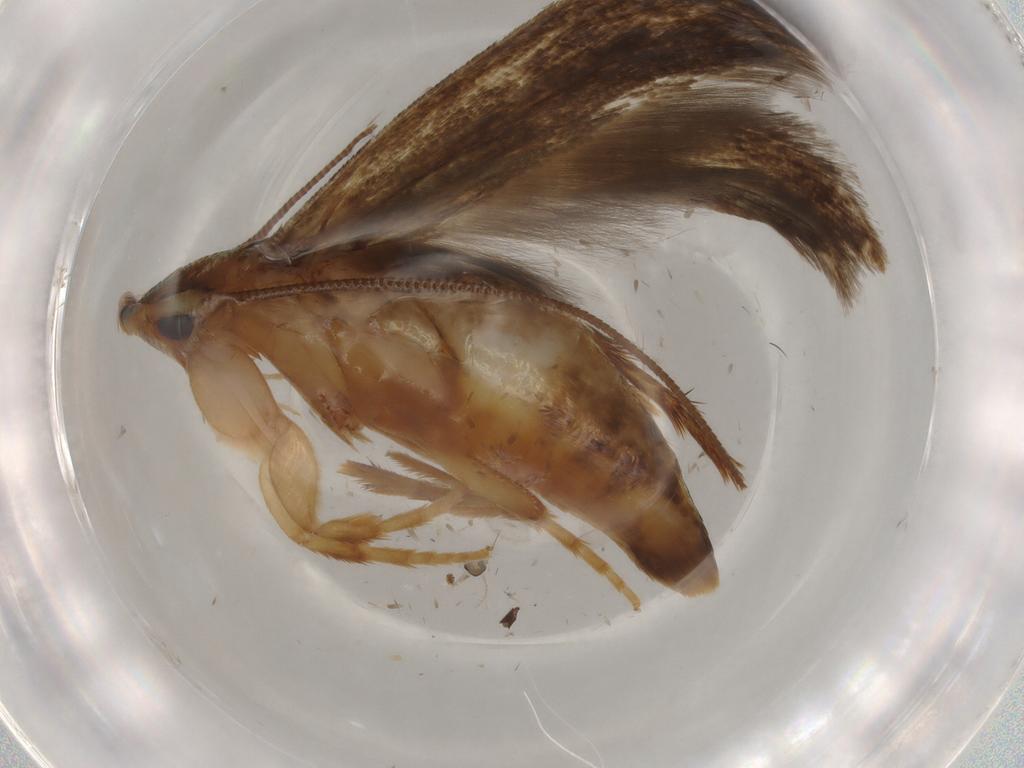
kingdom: Animalia
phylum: Arthropoda
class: Insecta
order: Lepidoptera
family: Tineidae
